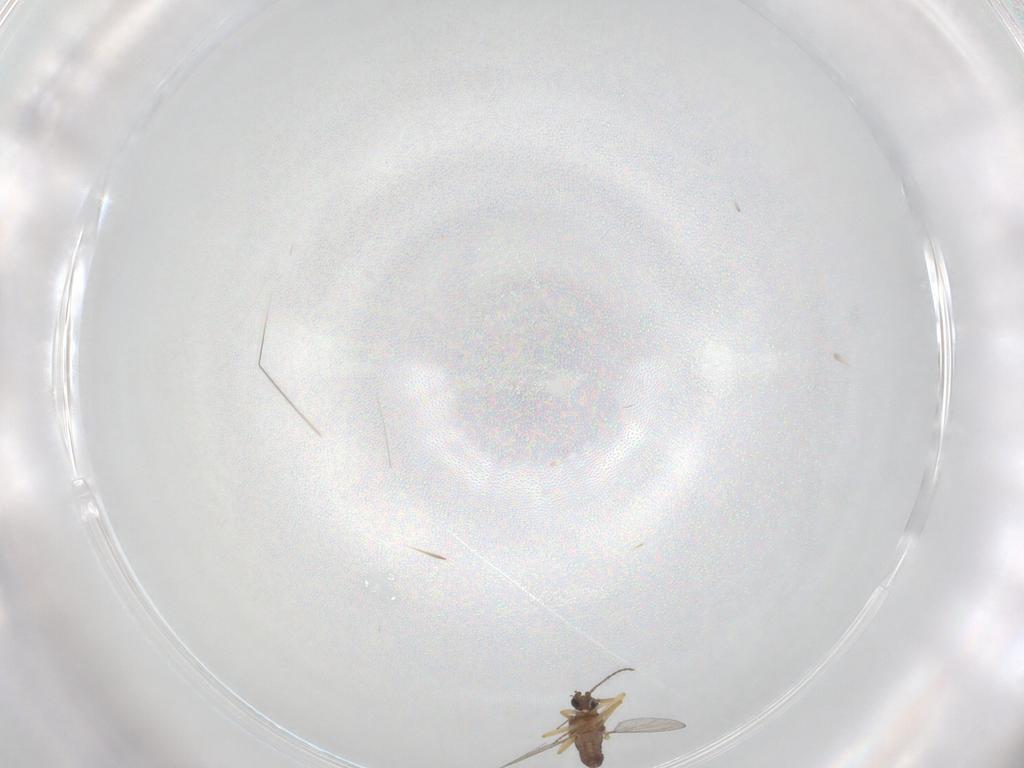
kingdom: Animalia
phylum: Arthropoda
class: Insecta
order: Diptera
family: Ceratopogonidae
